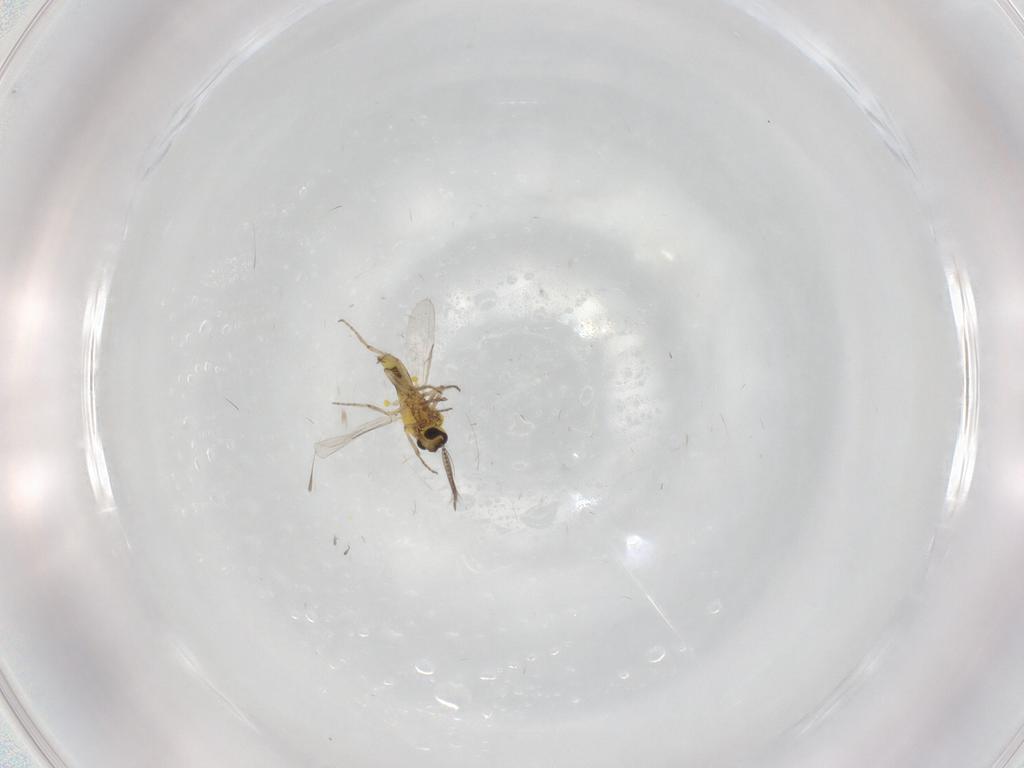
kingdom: Animalia
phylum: Arthropoda
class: Insecta
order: Diptera
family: Cecidomyiidae
